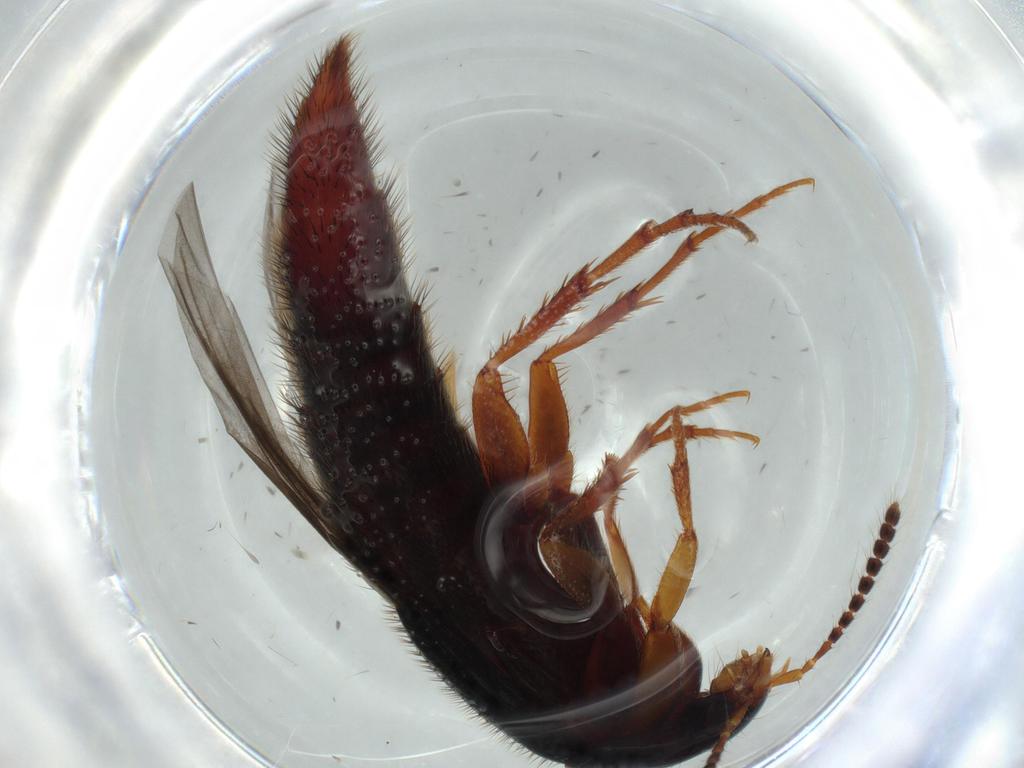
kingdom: Animalia
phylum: Arthropoda
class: Insecta
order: Coleoptera
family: Staphylinidae
